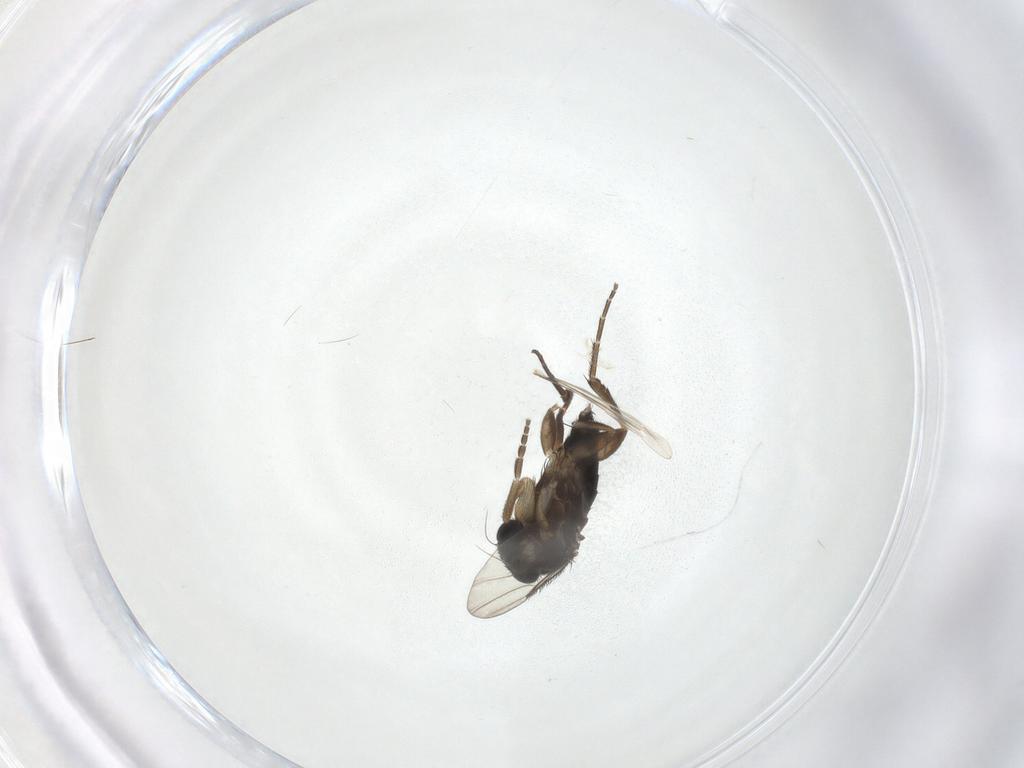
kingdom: Animalia
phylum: Arthropoda
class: Insecta
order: Diptera
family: Phoridae
